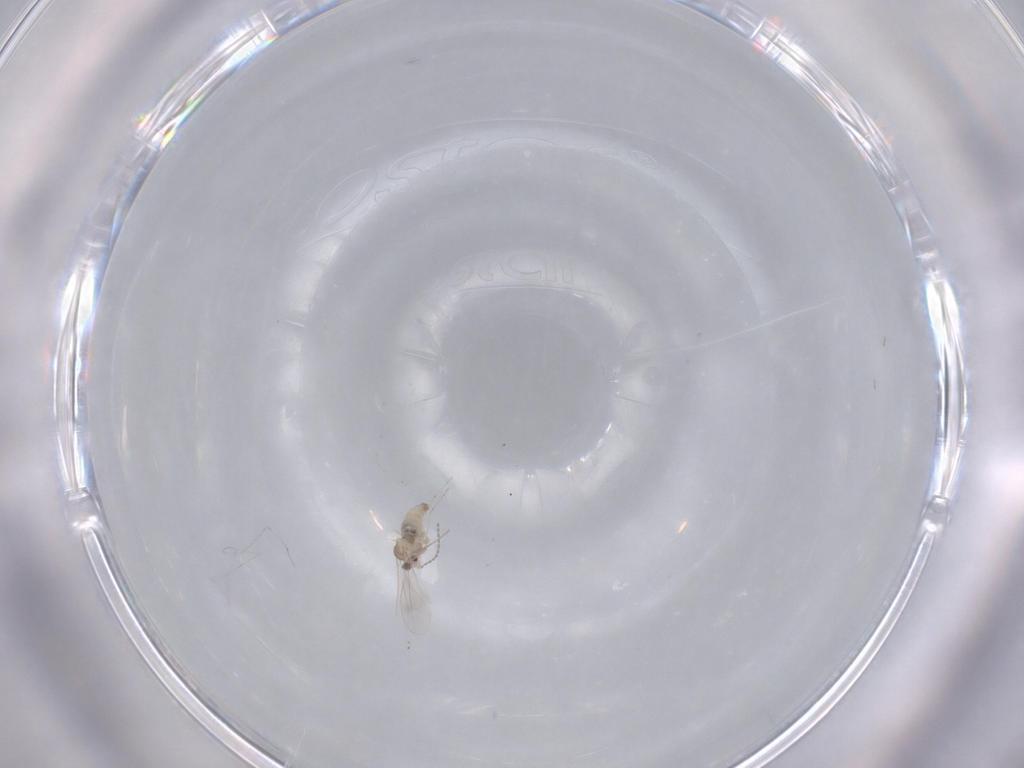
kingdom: Animalia
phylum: Arthropoda
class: Insecta
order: Diptera
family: Cecidomyiidae
